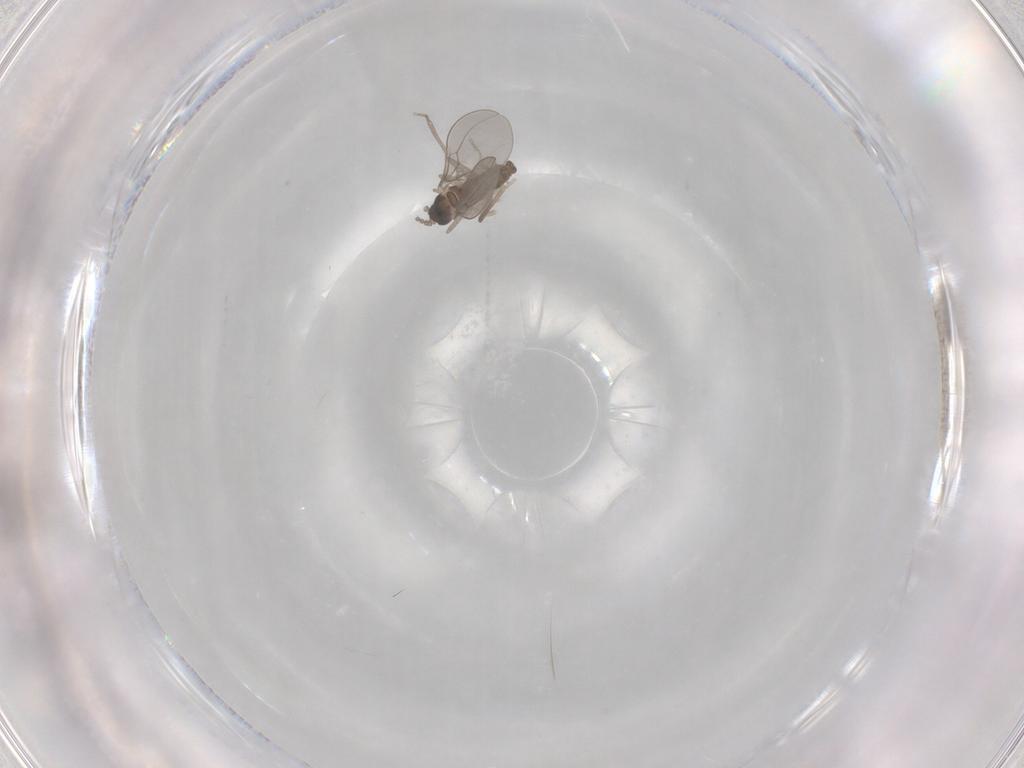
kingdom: Animalia
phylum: Arthropoda
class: Insecta
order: Diptera
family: Cecidomyiidae
